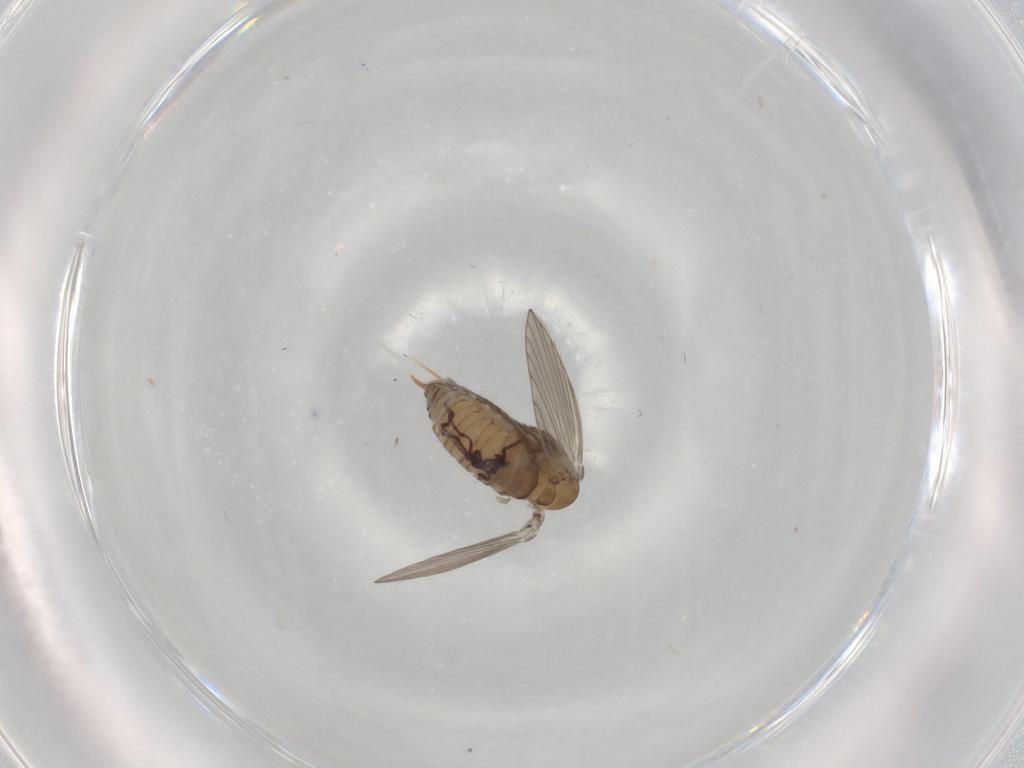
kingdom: Animalia
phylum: Arthropoda
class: Insecta
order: Diptera
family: Psychodidae
